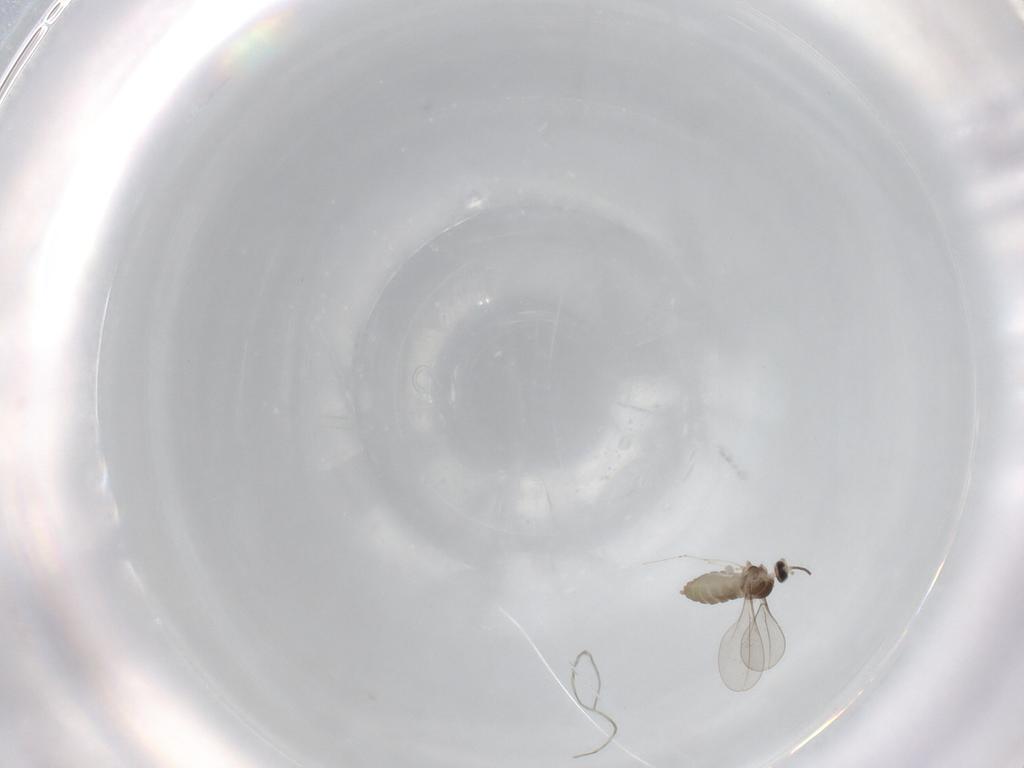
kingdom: Animalia
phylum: Arthropoda
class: Insecta
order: Diptera
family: Cecidomyiidae
